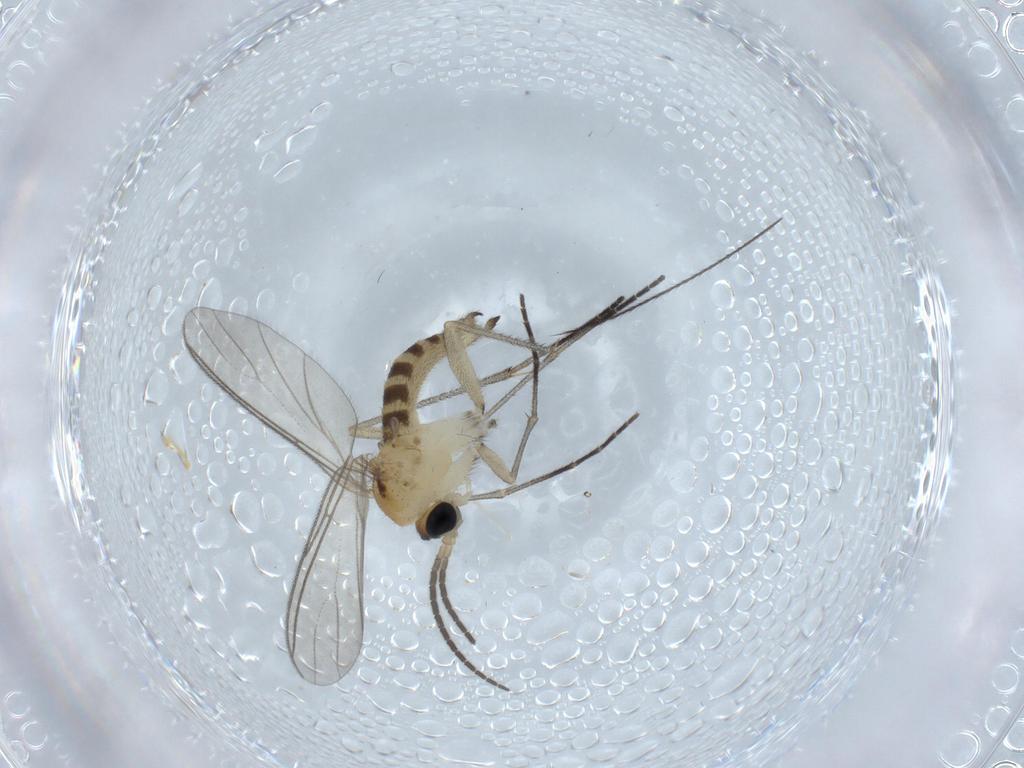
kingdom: Animalia
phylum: Arthropoda
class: Insecta
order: Diptera
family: Sciaridae
